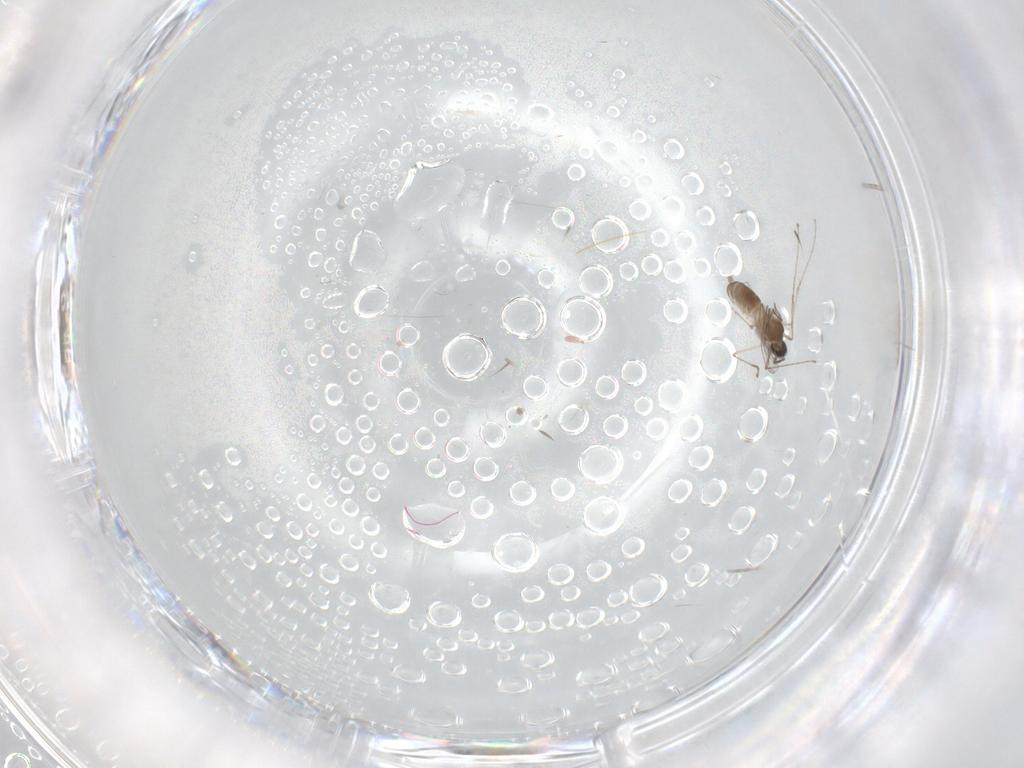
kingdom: Animalia
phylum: Arthropoda
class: Insecta
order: Diptera
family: Cecidomyiidae
